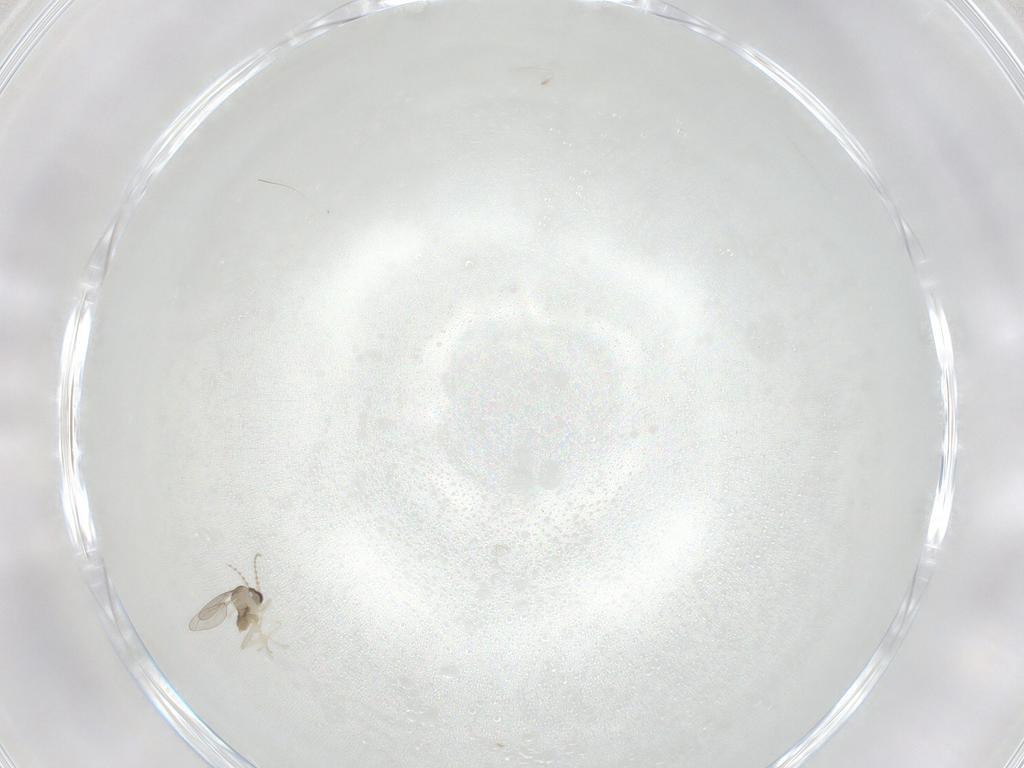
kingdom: Animalia
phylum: Arthropoda
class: Insecta
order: Diptera
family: Cecidomyiidae
